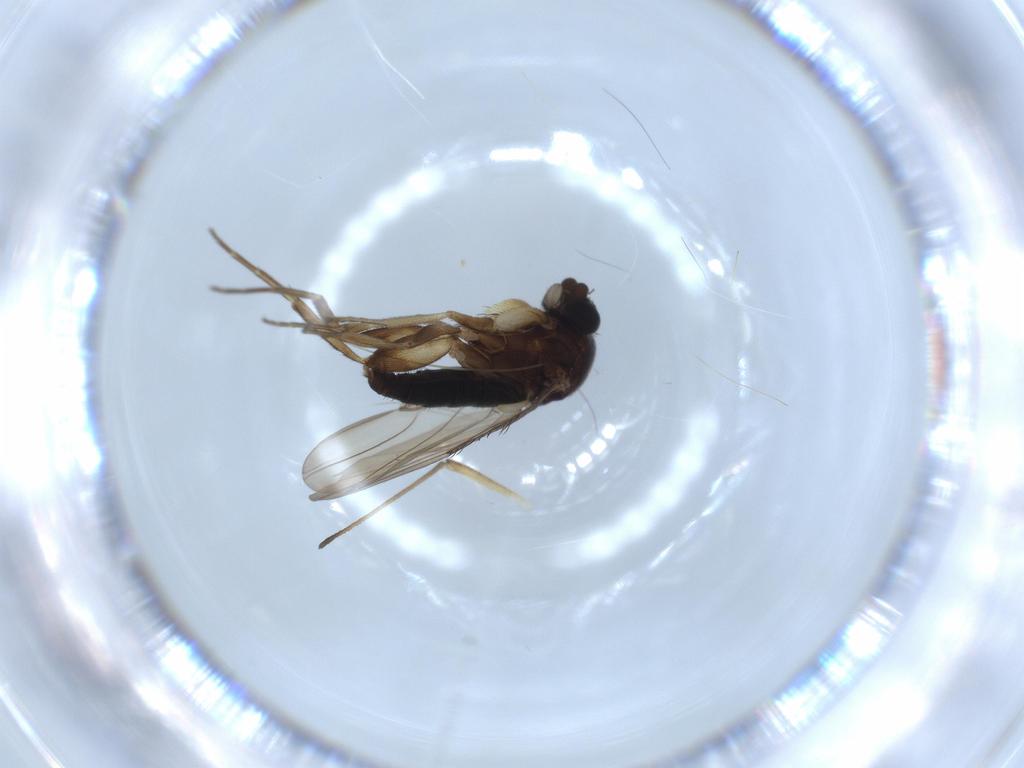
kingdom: Animalia
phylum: Arthropoda
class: Insecta
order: Diptera
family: Phoridae
